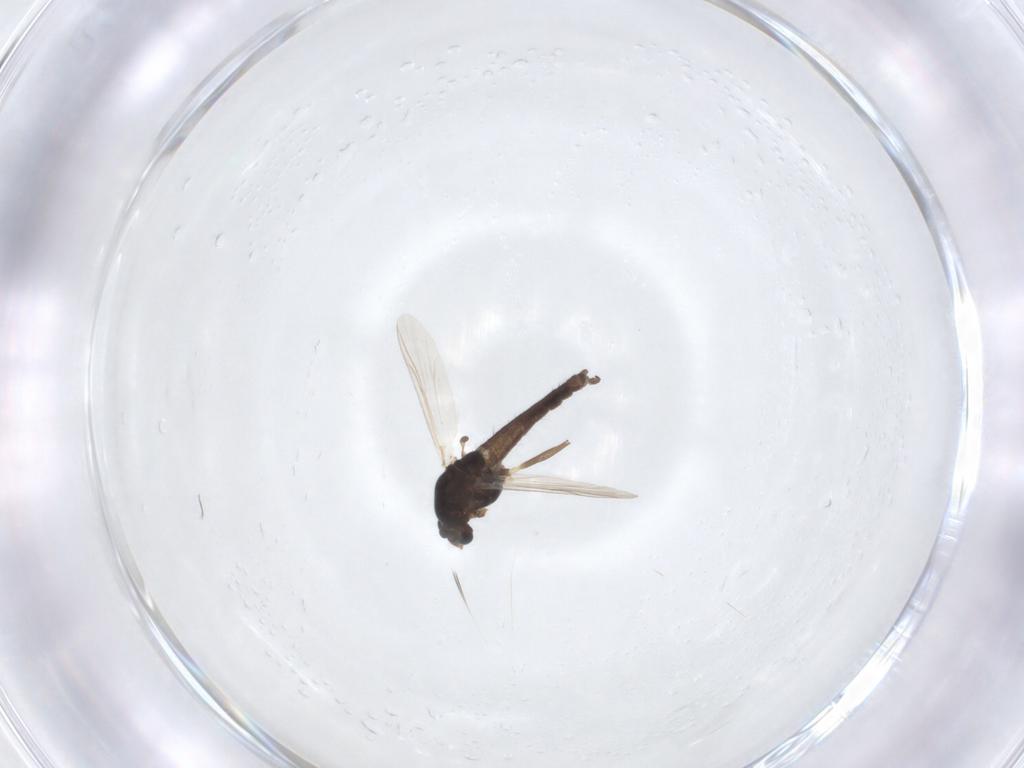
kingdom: Animalia
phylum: Arthropoda
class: Insecta
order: Diptera
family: Chironomidae
